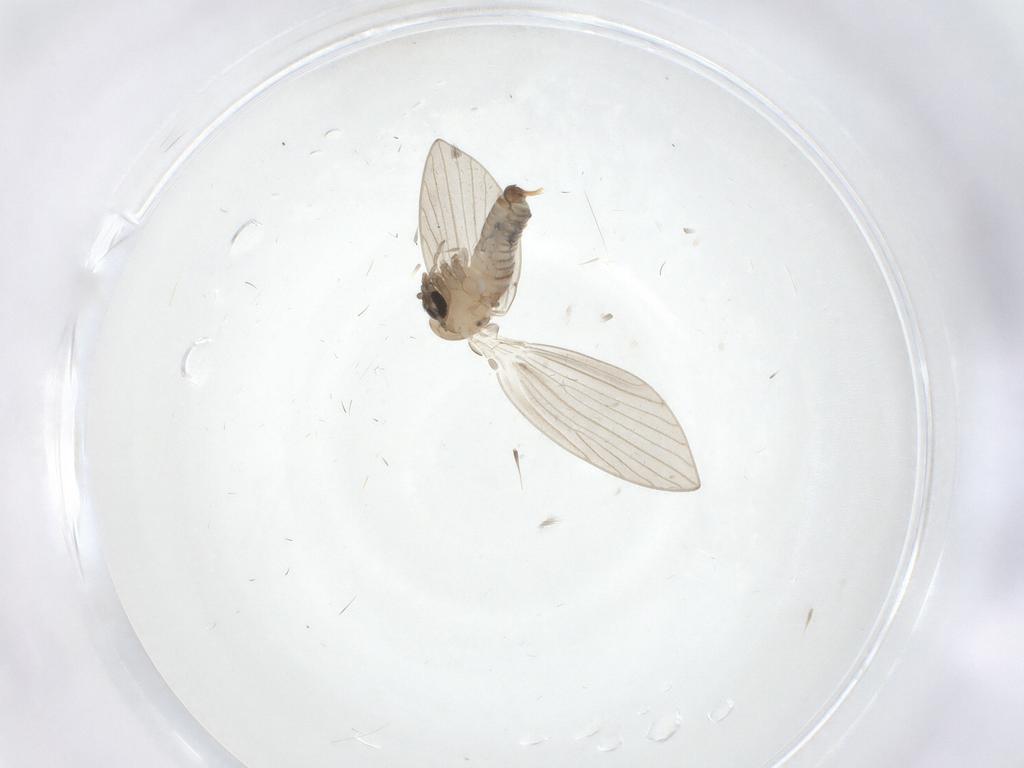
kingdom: Animalia
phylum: Arthropoda
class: Insecta
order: Diptera
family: Psychodidae
